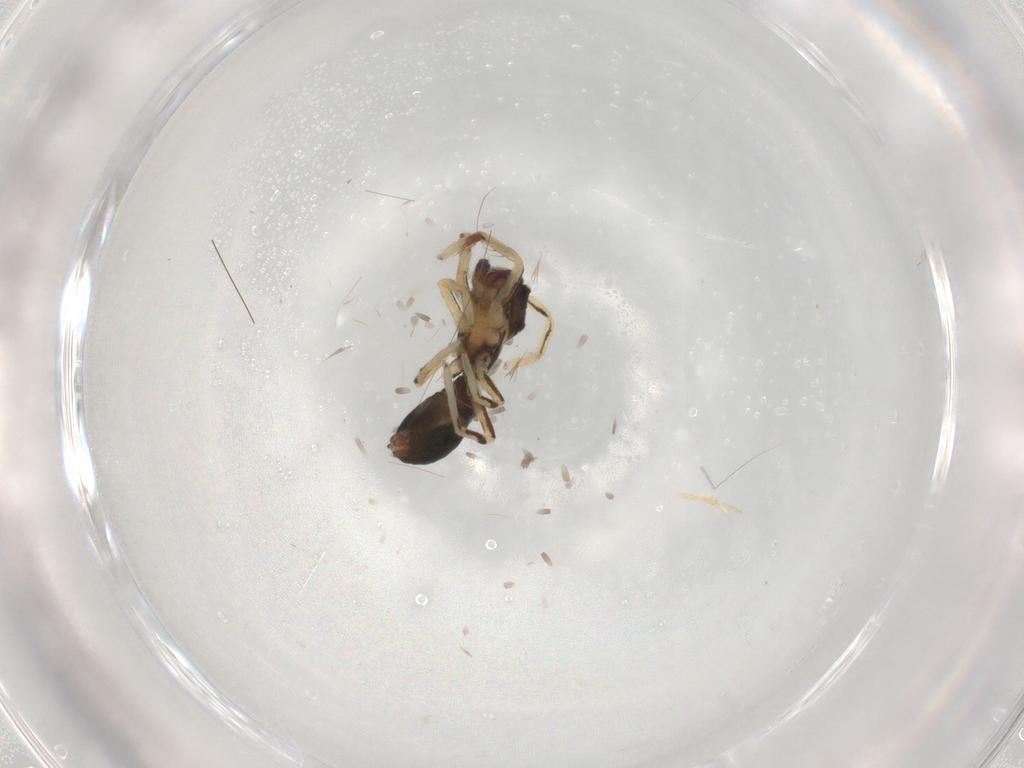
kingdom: Animalia
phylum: Arthropoda
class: Arachnida
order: Araneae
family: Salticidae
